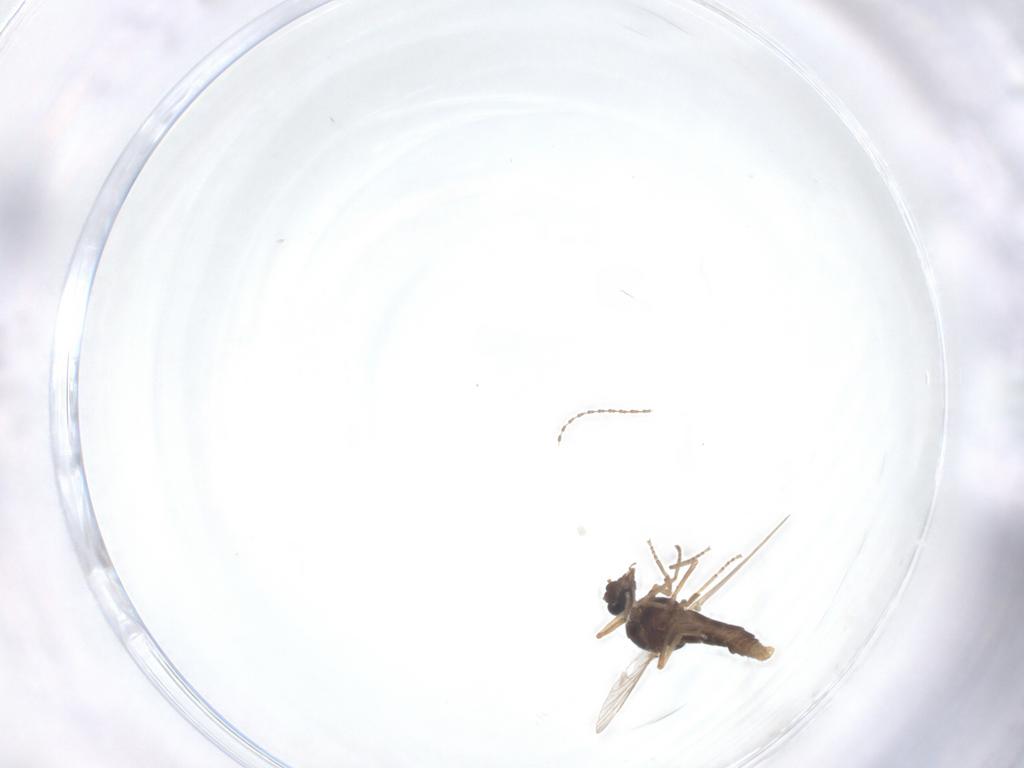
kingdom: Animalia
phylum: Arthropoda
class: Insecta
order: Diptera
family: Ceratopogonidae
